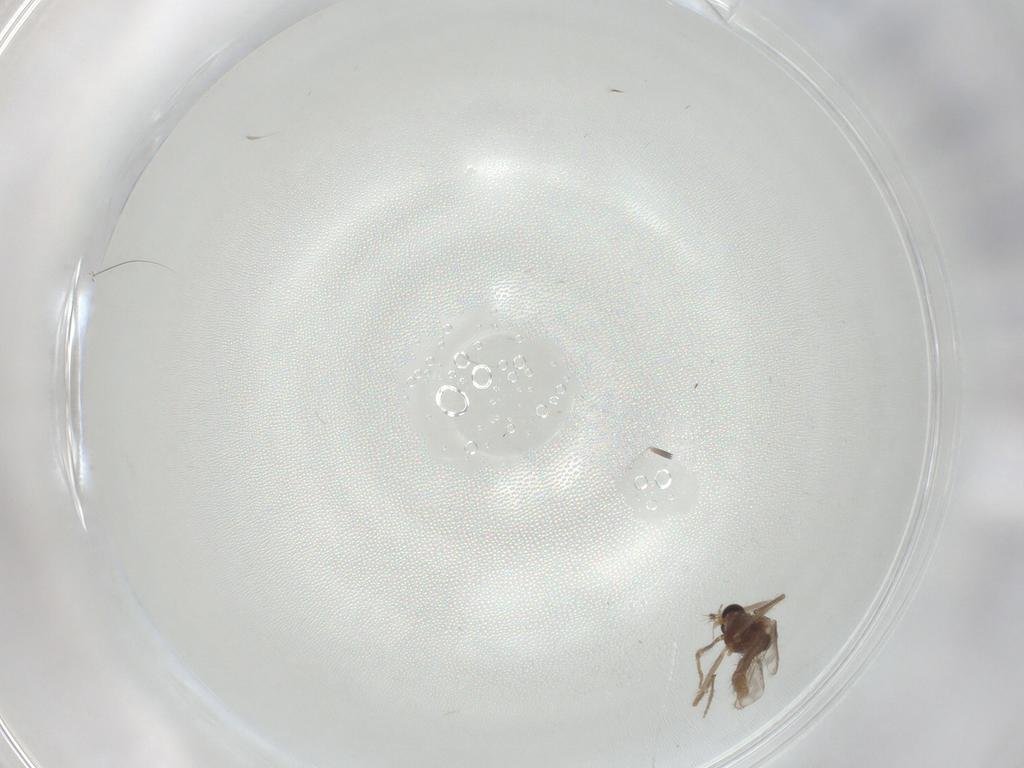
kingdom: Animalia
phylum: Arthropoda
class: Insecta
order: Diptera
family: Chironomidae
